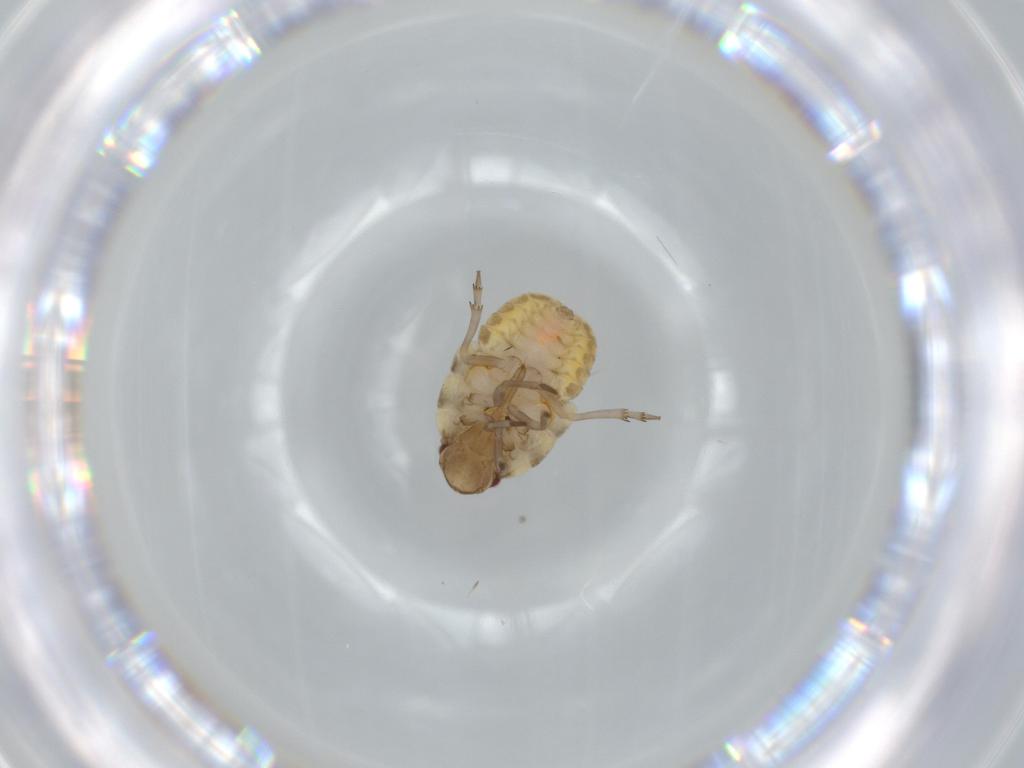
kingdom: Animalia
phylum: Arthropoda
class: Insecta
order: Hemiptera
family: Flatidae
